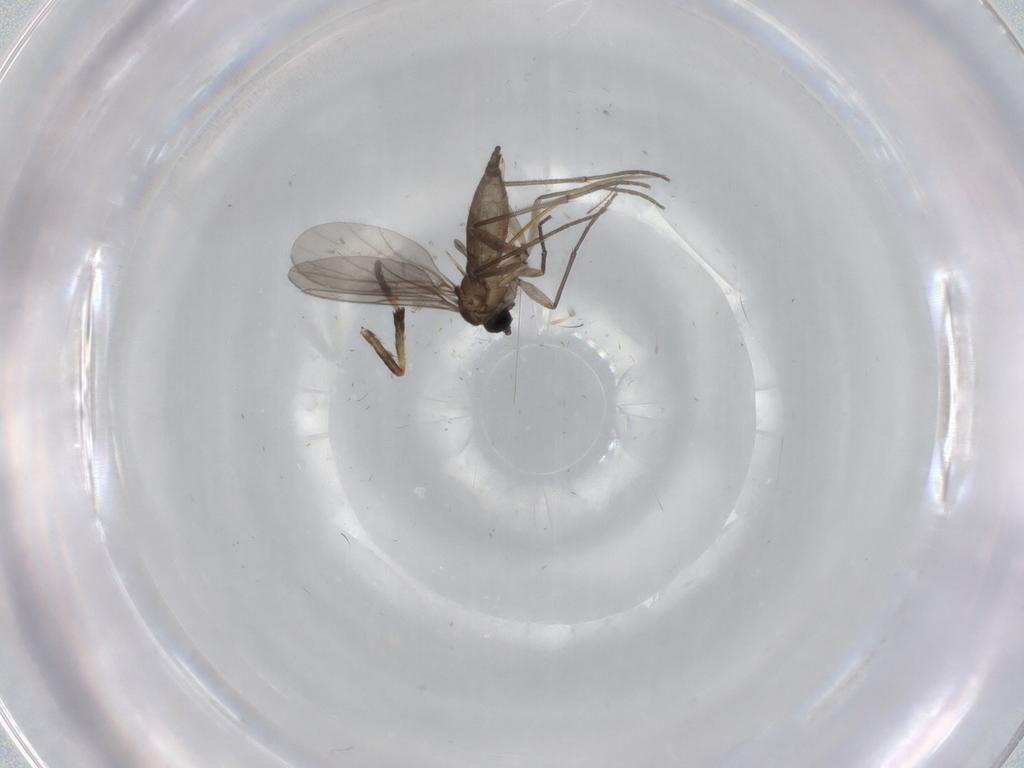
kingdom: Animalia
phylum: Arthropoda
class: Insecta
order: Diptera
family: Sciaridae
